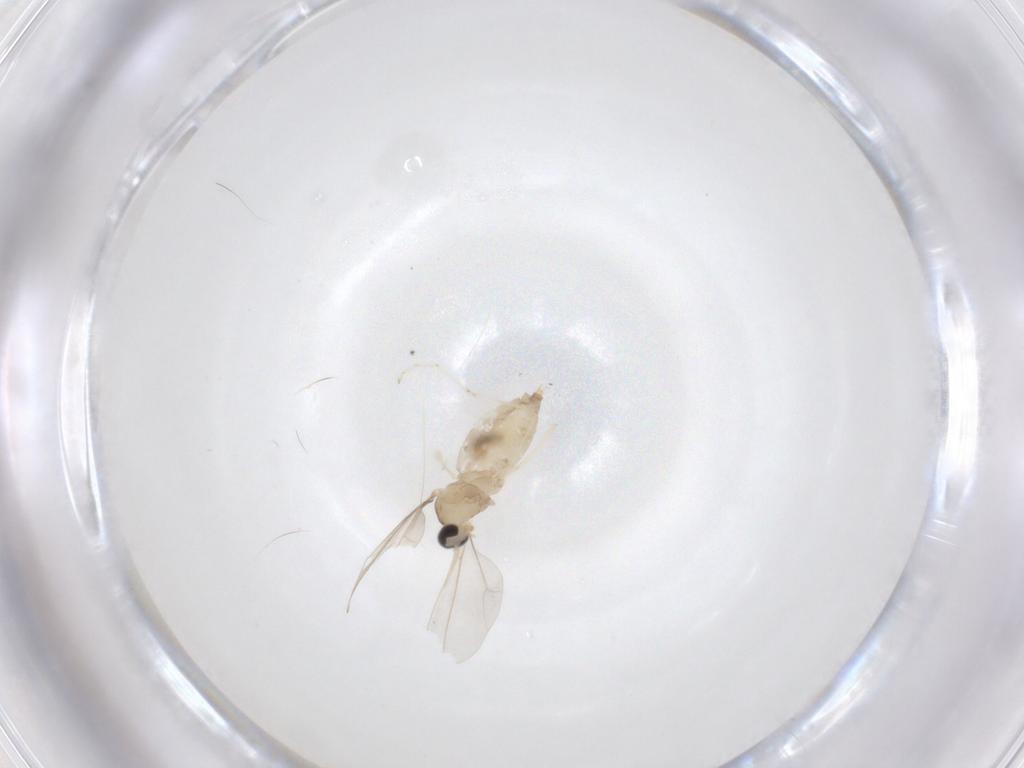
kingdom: Animalia
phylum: Arthropoda
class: Insecta
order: Diptera
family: Cecidomyiidae
